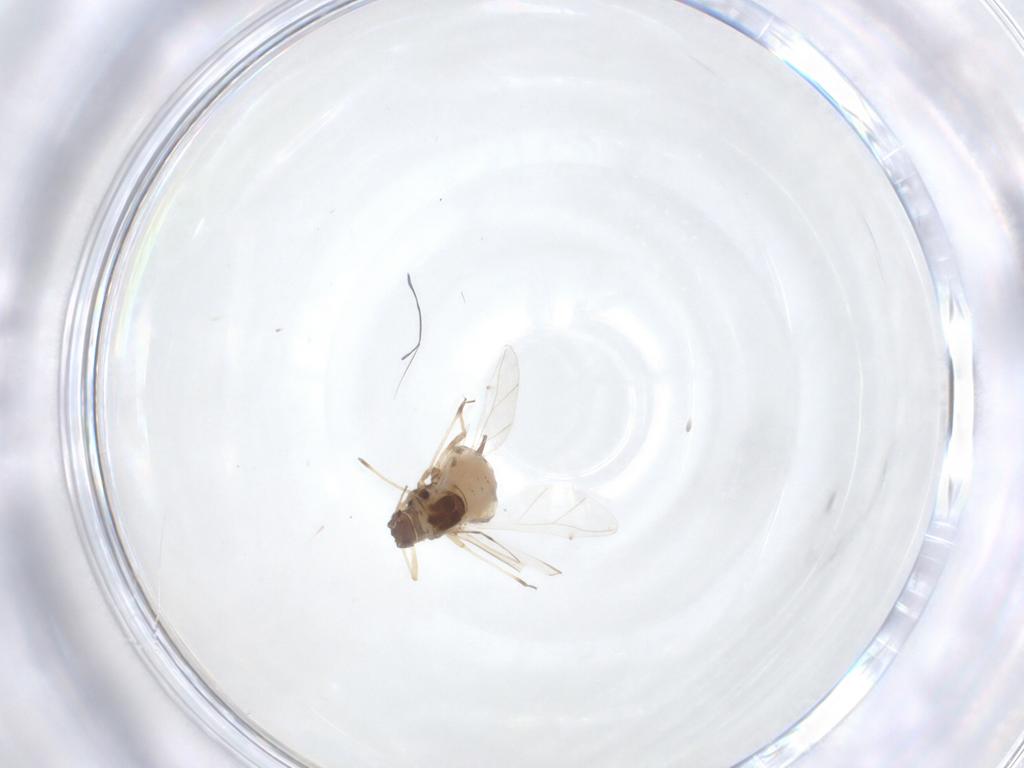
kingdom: Animalia
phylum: Arthropoda
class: Insecta
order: Hemiptera
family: Aphididae
